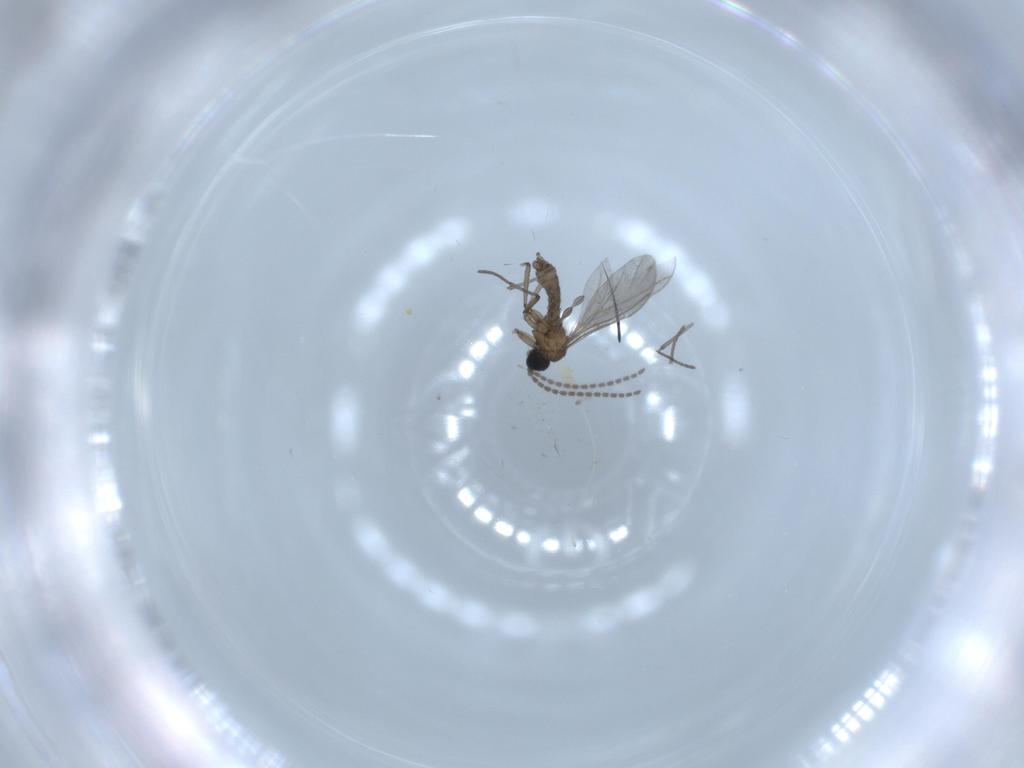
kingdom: Animalia
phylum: Arthropoda
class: Insecta
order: Diptera
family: Sciaridae
